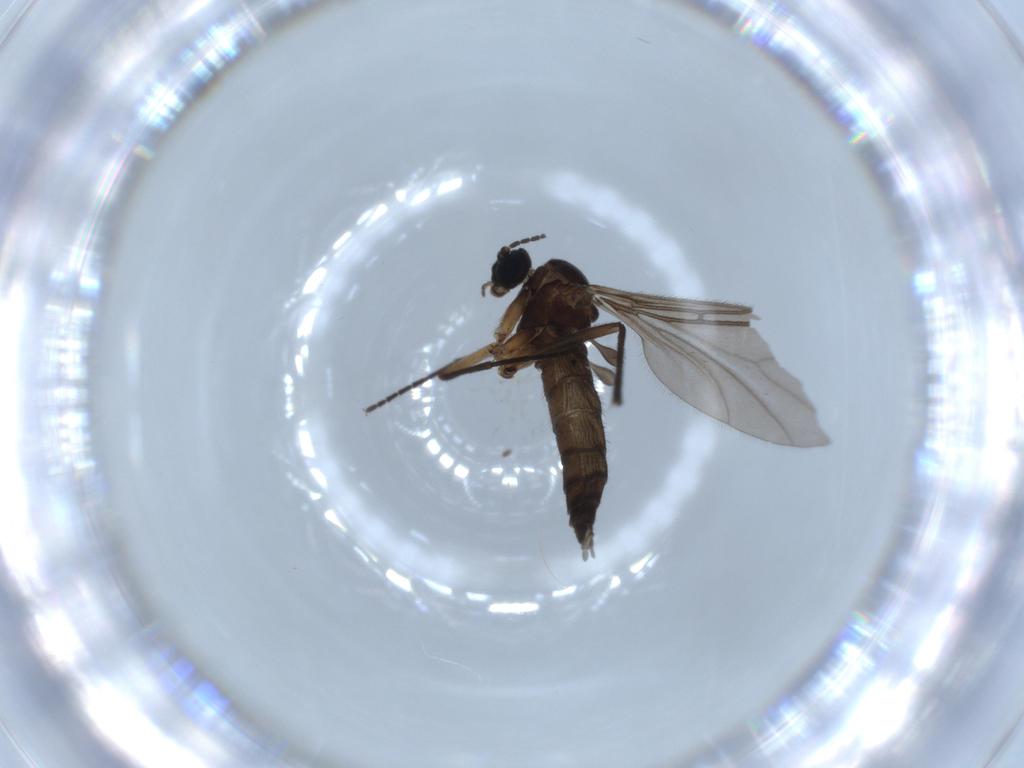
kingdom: Animalia
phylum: Arthropoda
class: Insecta
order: Diptera
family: Sciaridae
